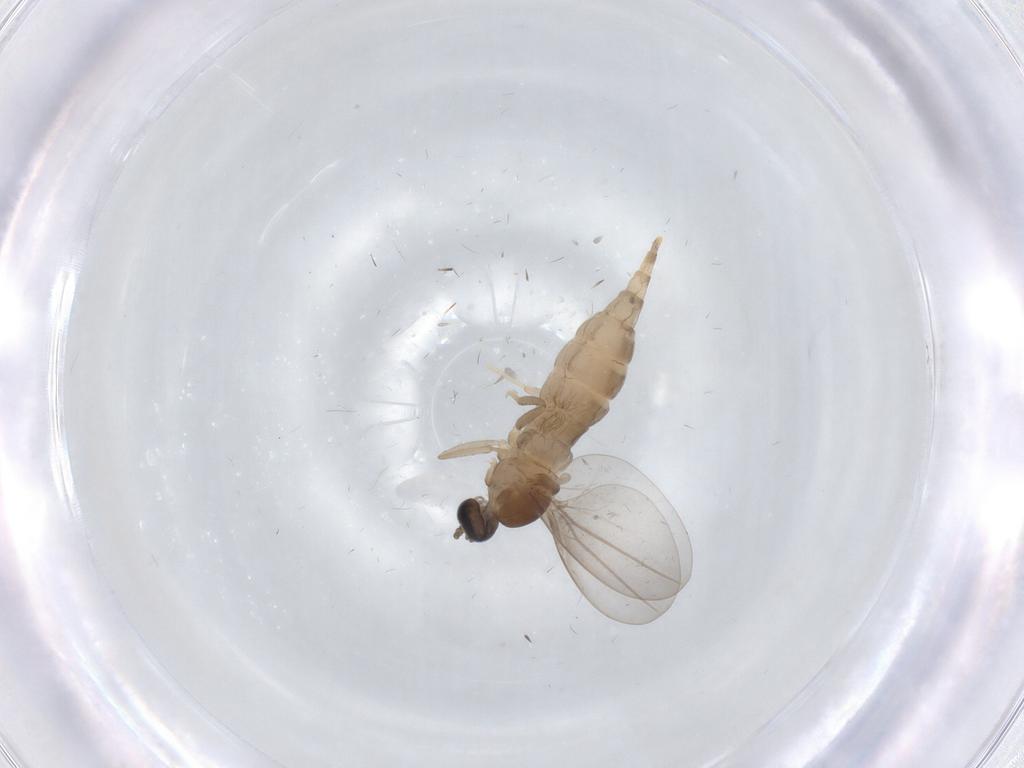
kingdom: Animalia
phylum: Arthropoda
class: Insecta
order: Diptera
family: Cecidomyiidae
